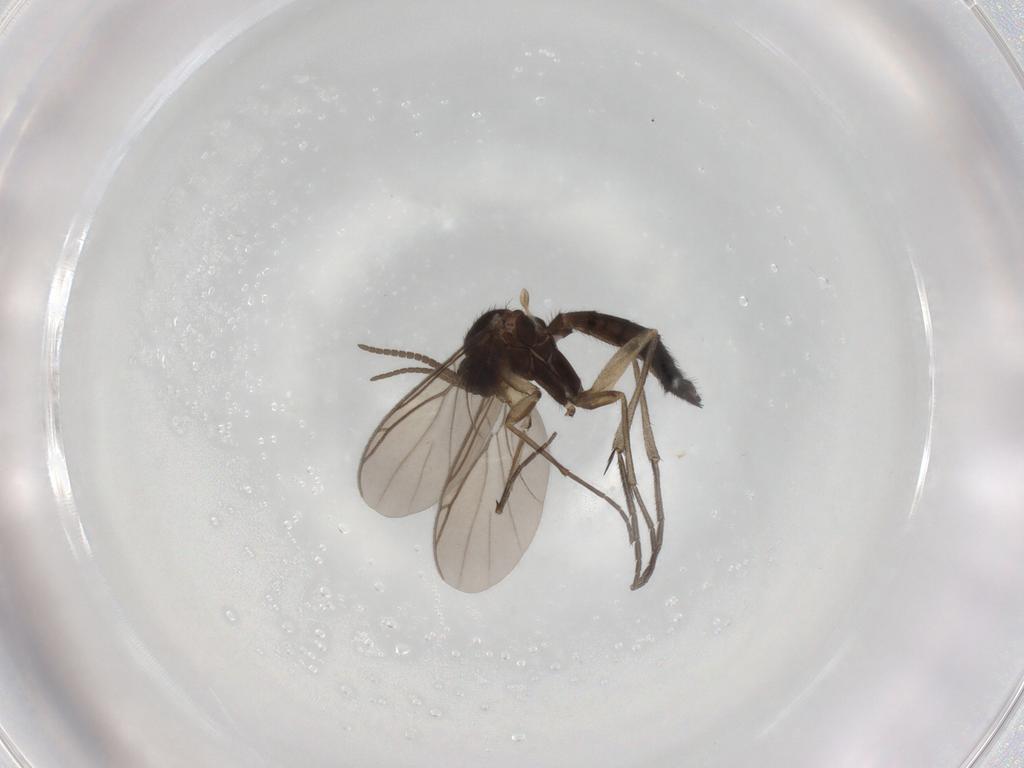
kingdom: Animalia
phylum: Arthropoda
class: Insecta
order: Diptera
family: Keroplatidae
